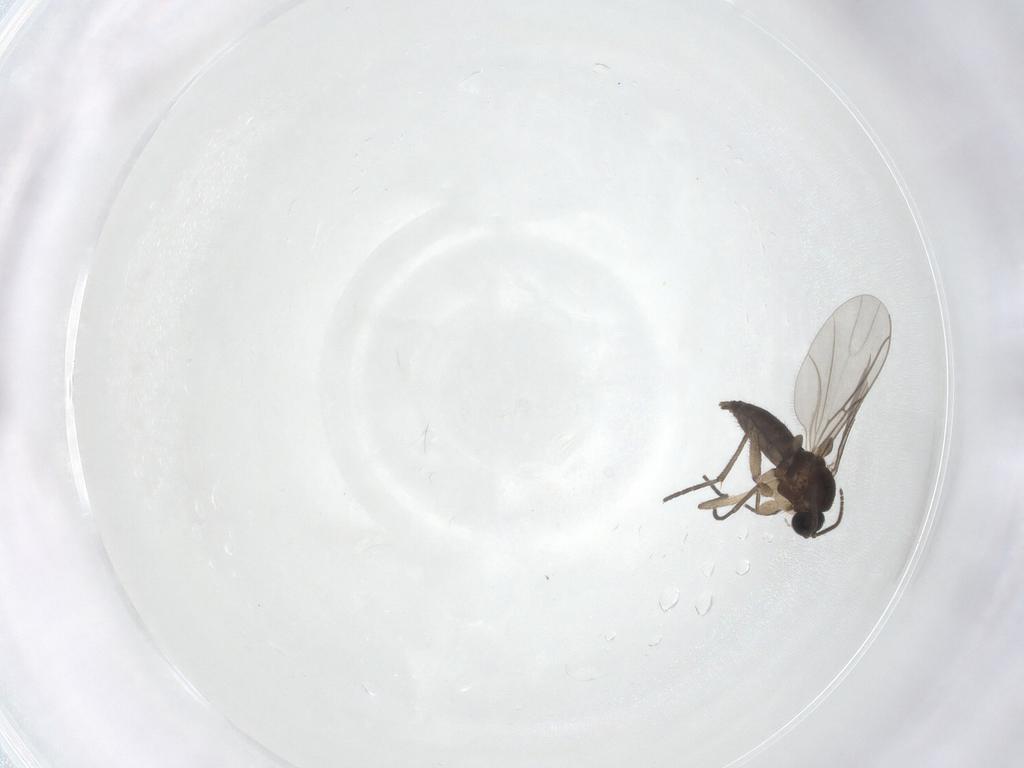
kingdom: Animalia
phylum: Arthropoda
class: Insecta
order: Diptera
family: Sciaridae
